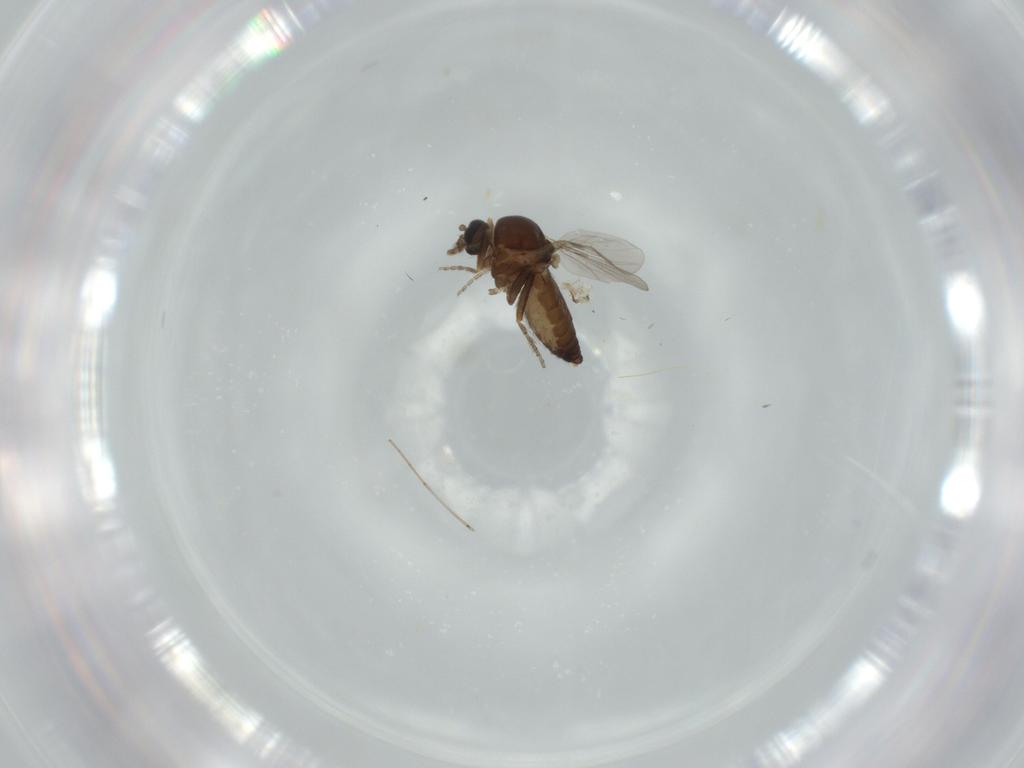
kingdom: Animalia
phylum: Arthropoda
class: Insecta
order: Diptera
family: Ceratopogonidae
